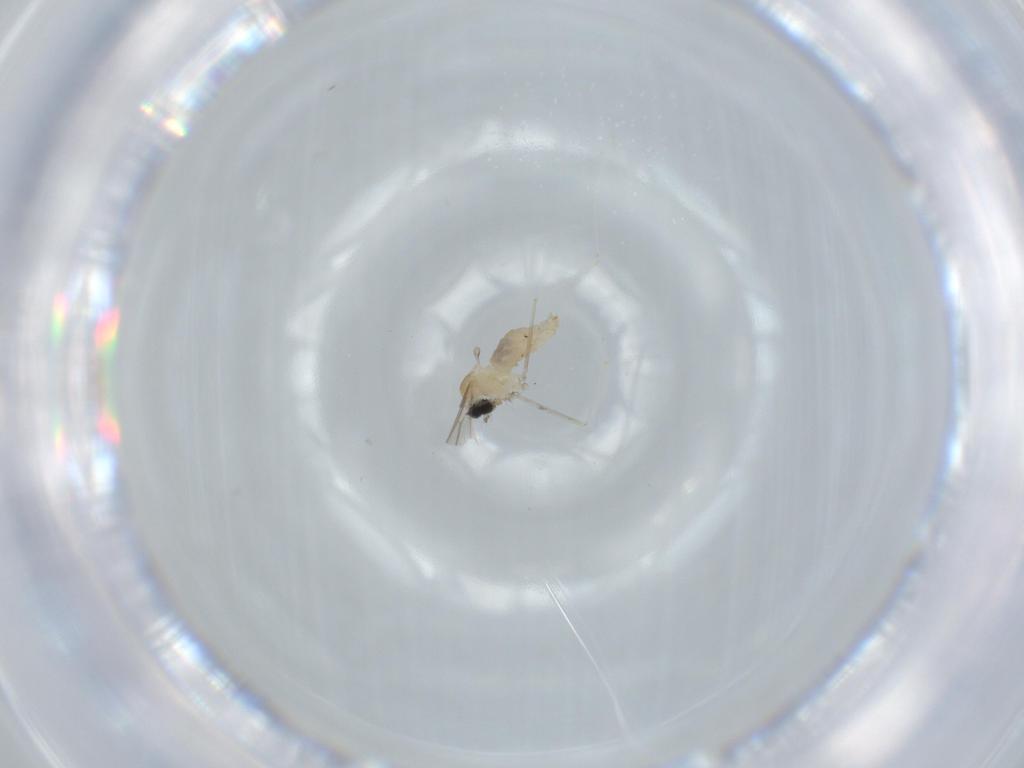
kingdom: Animalia
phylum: Arthropoda
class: Insecta
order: Diptera
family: Cecidomyiidae
